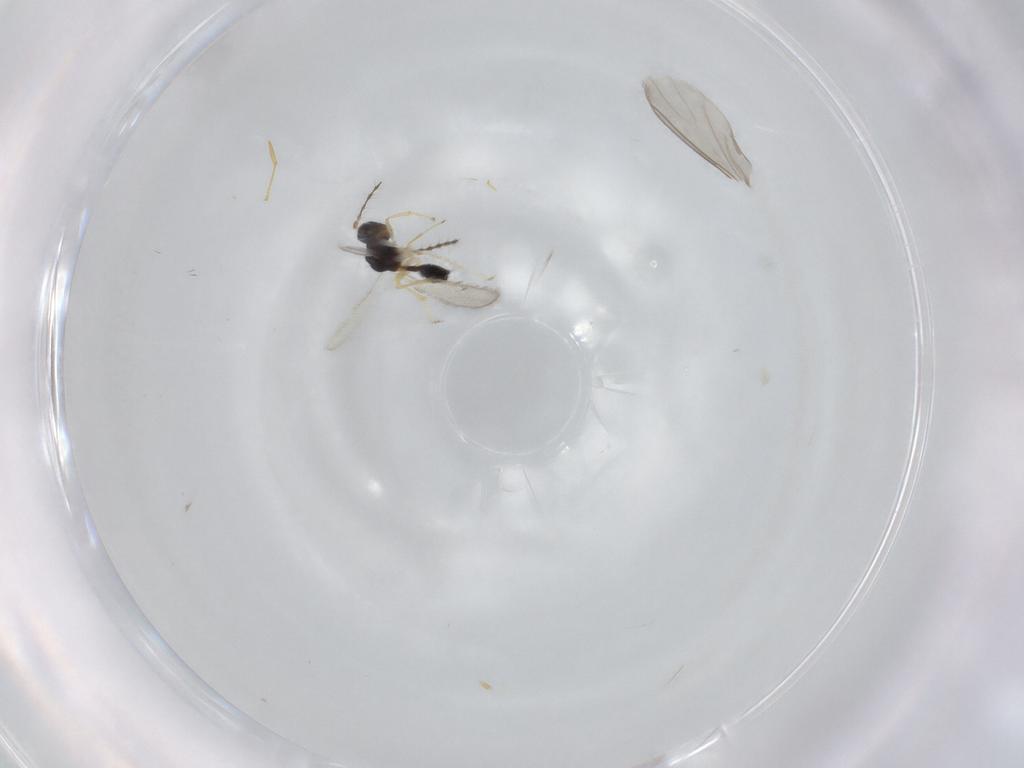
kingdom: Animalia
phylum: Arthropoda
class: Insecta
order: Hymenoptera
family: Diparidae
